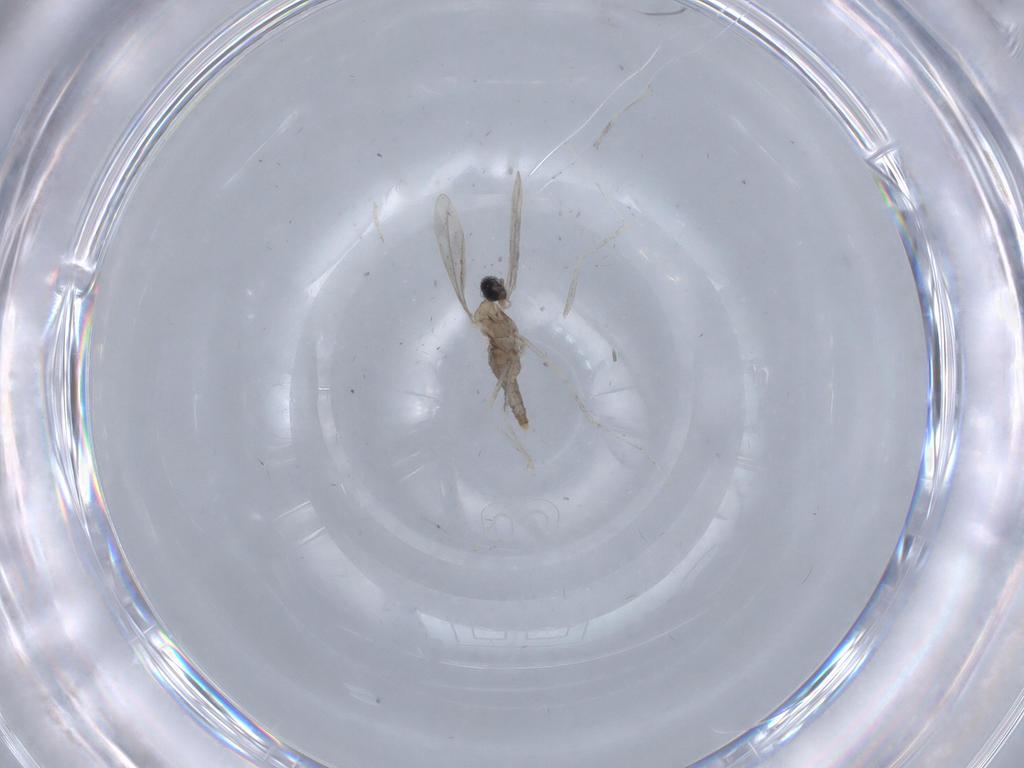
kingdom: Animalia
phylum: Arthropoda
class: Insecta
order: Diptera
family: Cecidomyiidae
